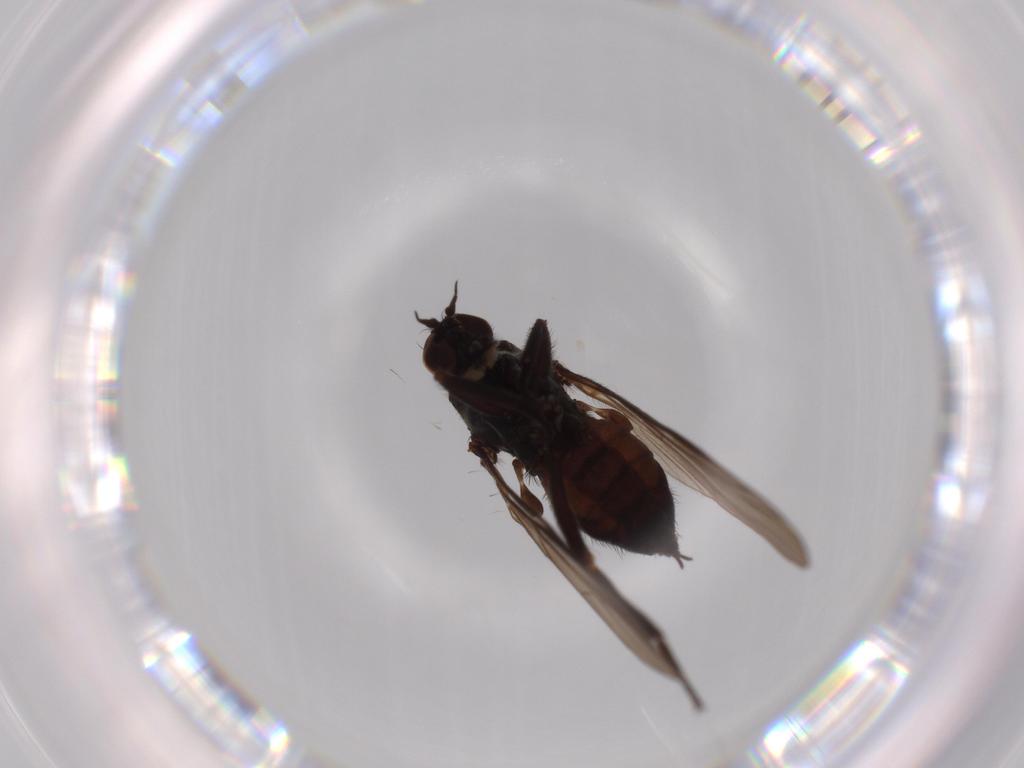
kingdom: Animalia
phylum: Arthropoda
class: Insecta
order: Diptera
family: Empididae
